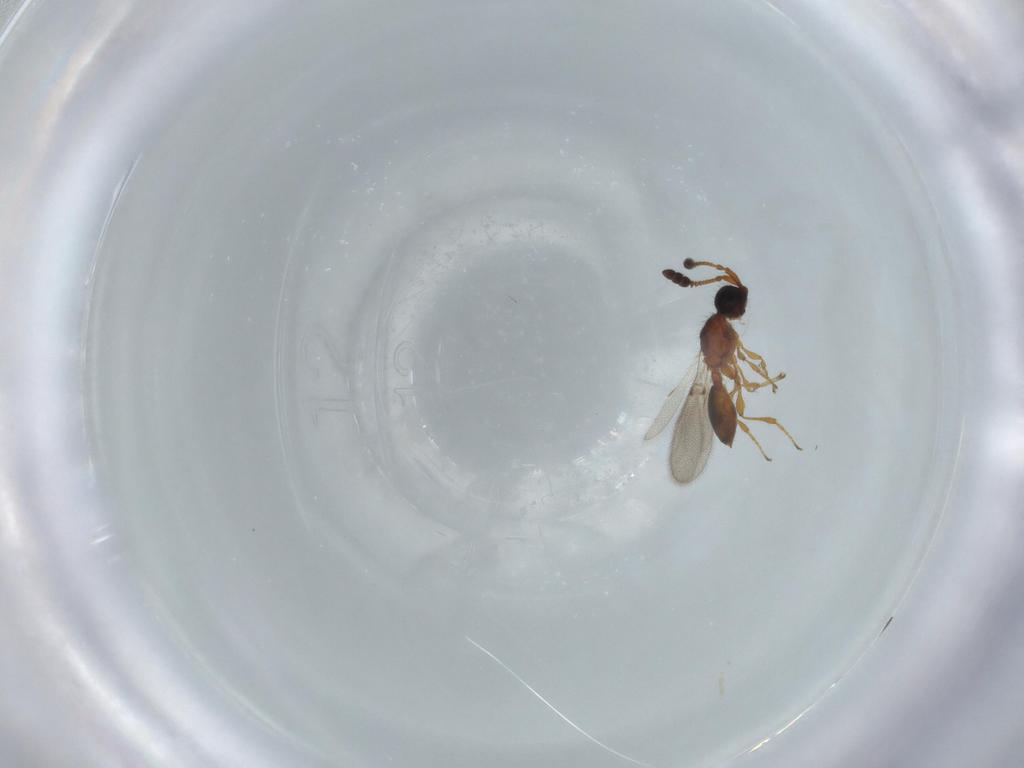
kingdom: Animalia
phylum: Arthropoda
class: Insecta
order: Hymenoptera
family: Diapriidae
